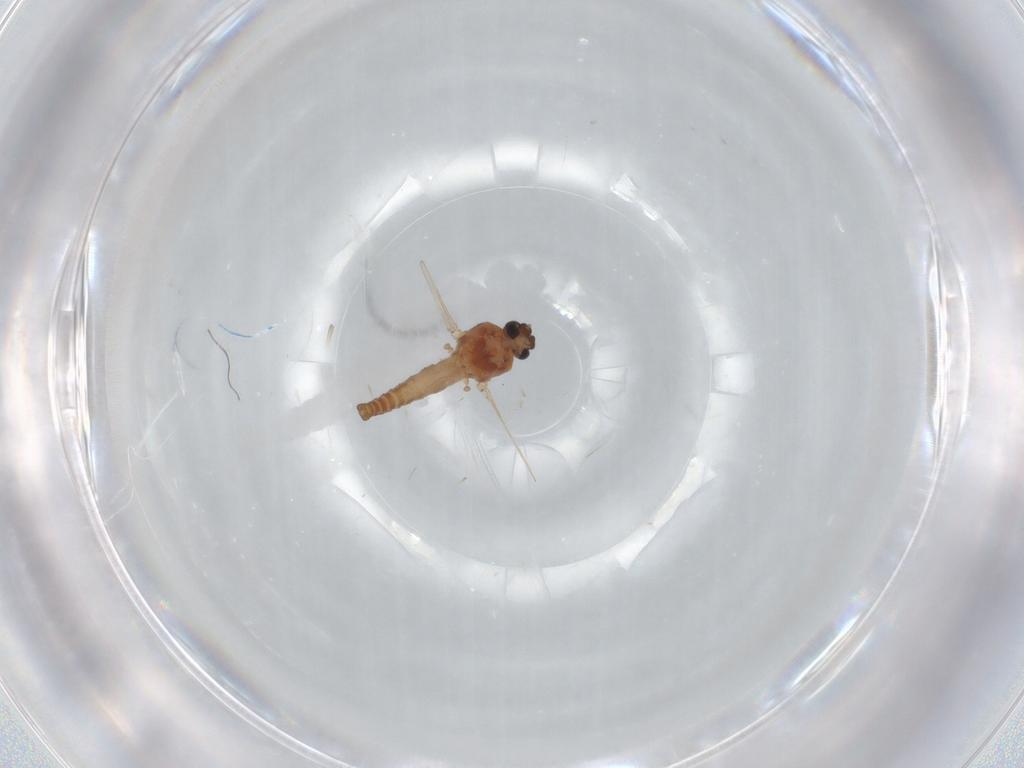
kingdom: Animalia
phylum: Arthropoda
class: Insecta
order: Diptera
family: Ceratopogonidae
